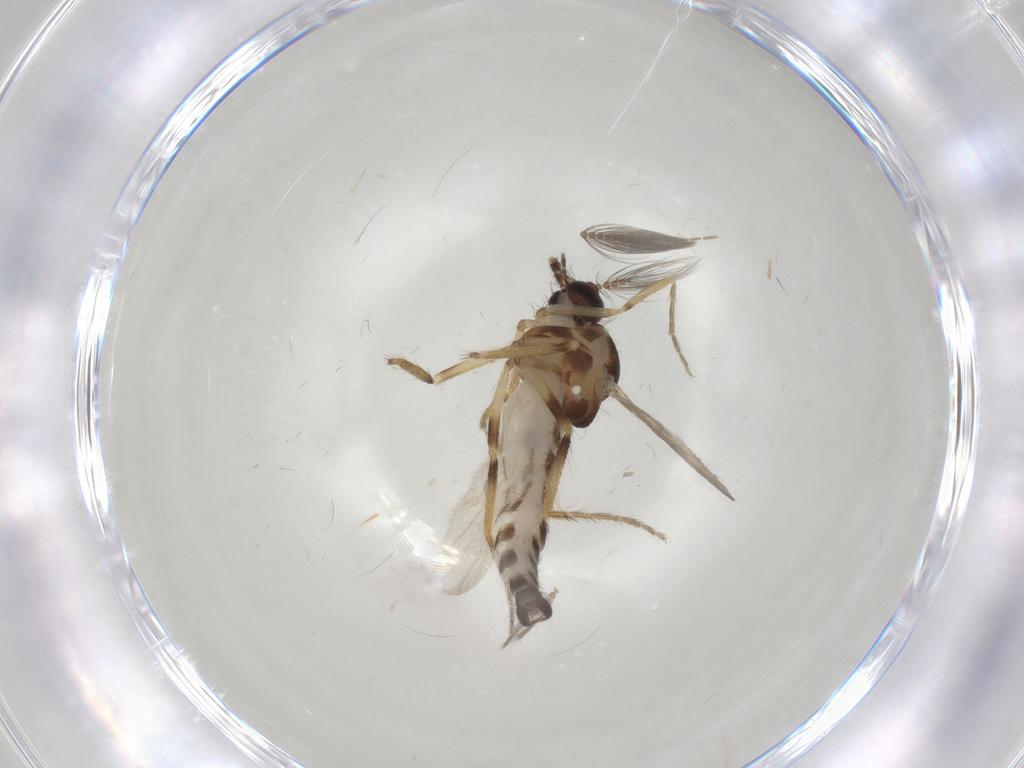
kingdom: Animalia
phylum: Arthropoda
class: Insecta
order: Diptera
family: Ceratopogonidae
